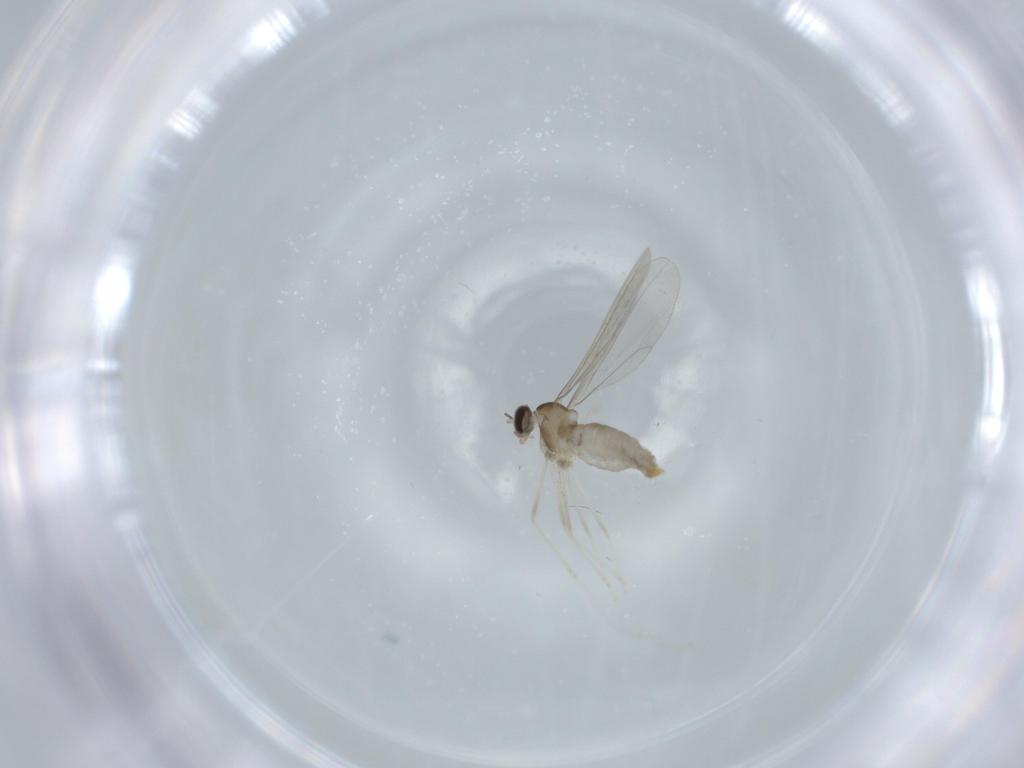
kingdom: Animalia
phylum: Arthropoda
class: Insecta
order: Diptera
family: Cecidomyiidae
